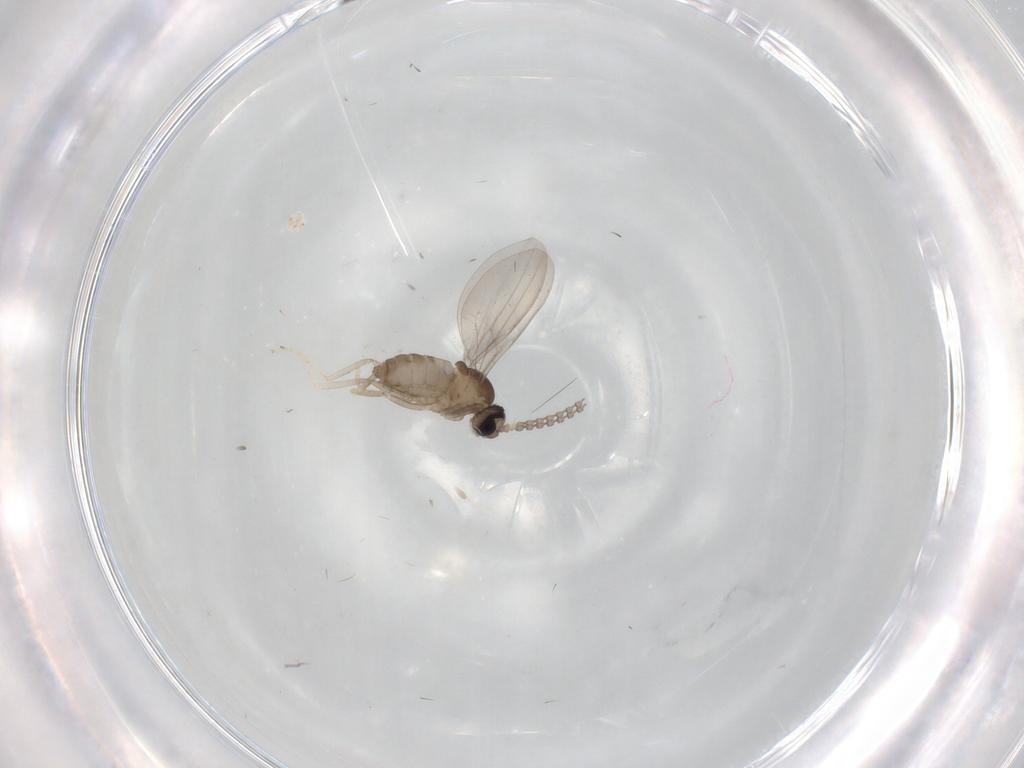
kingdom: Animalia
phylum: Arthropoda
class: Insecta
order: Diptera
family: Cecidomyiidae
